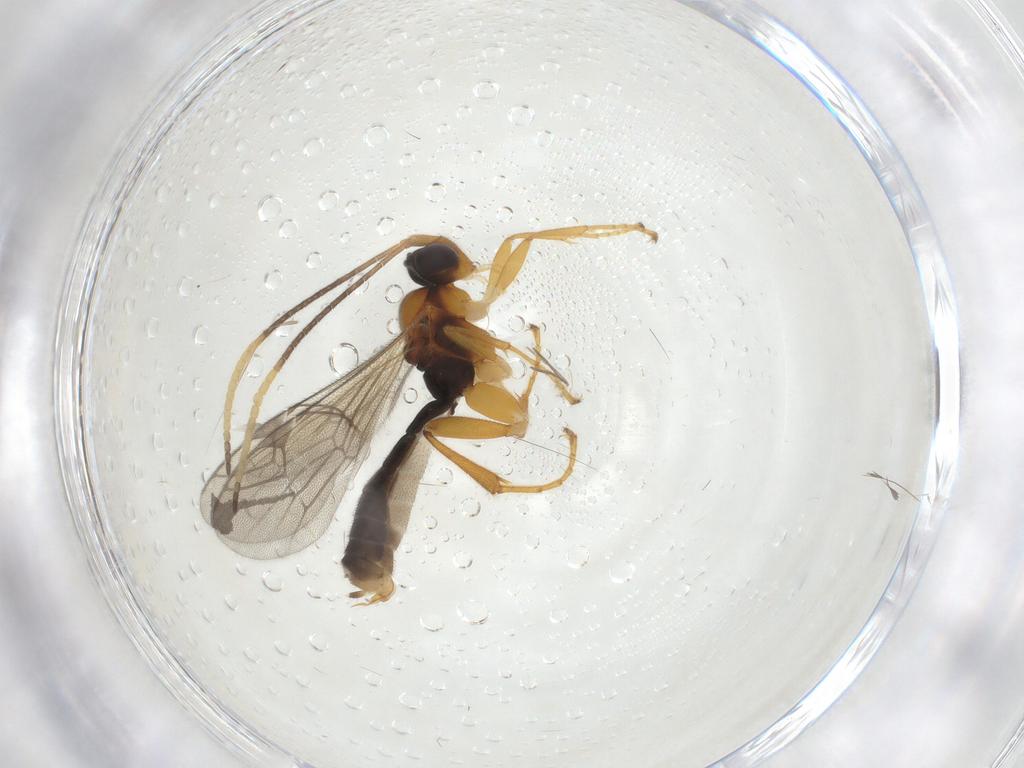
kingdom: Animalia
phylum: Arthropoda
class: Insecta
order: Hymenoptera
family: Ichneumonidae
